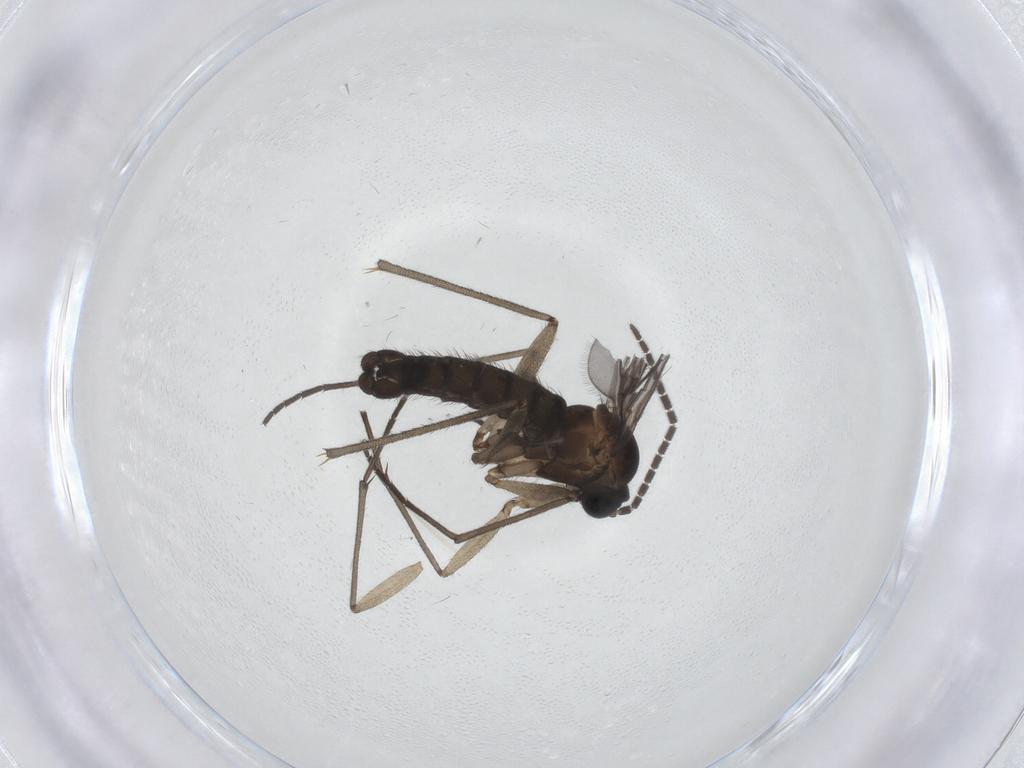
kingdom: Animalia
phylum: Arthropoda
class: Insecta
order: Diptera
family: Sciaridae
